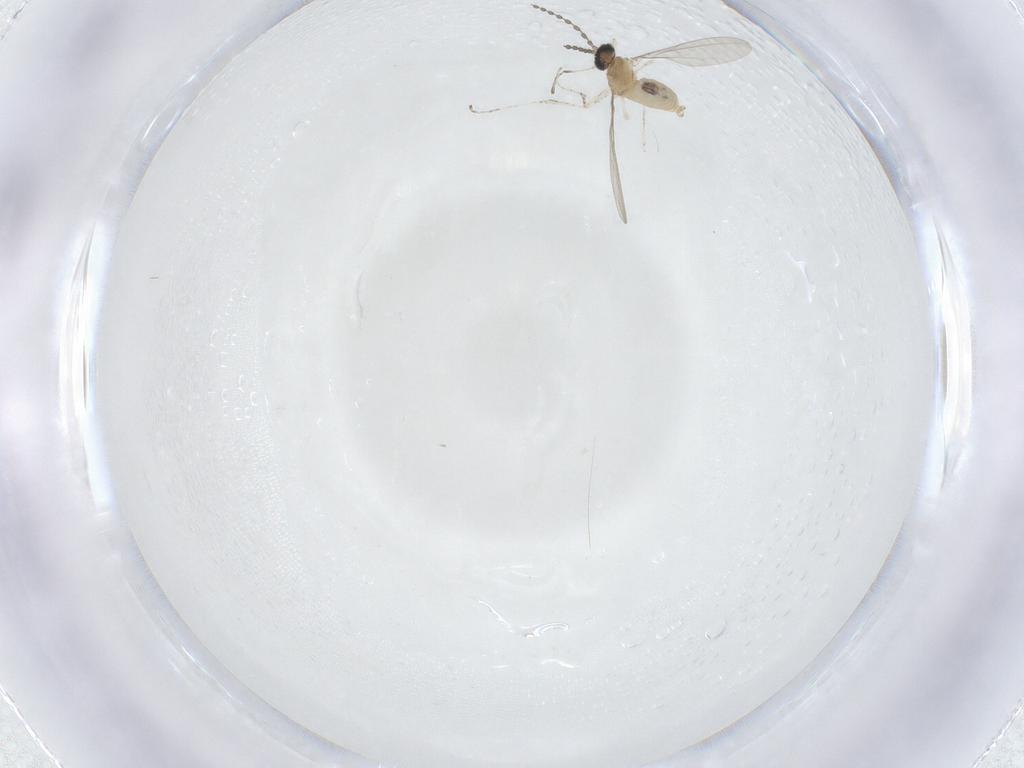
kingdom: Animalia
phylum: Arthropoda
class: Insecta
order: Diptera
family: Cecidomyiidae
